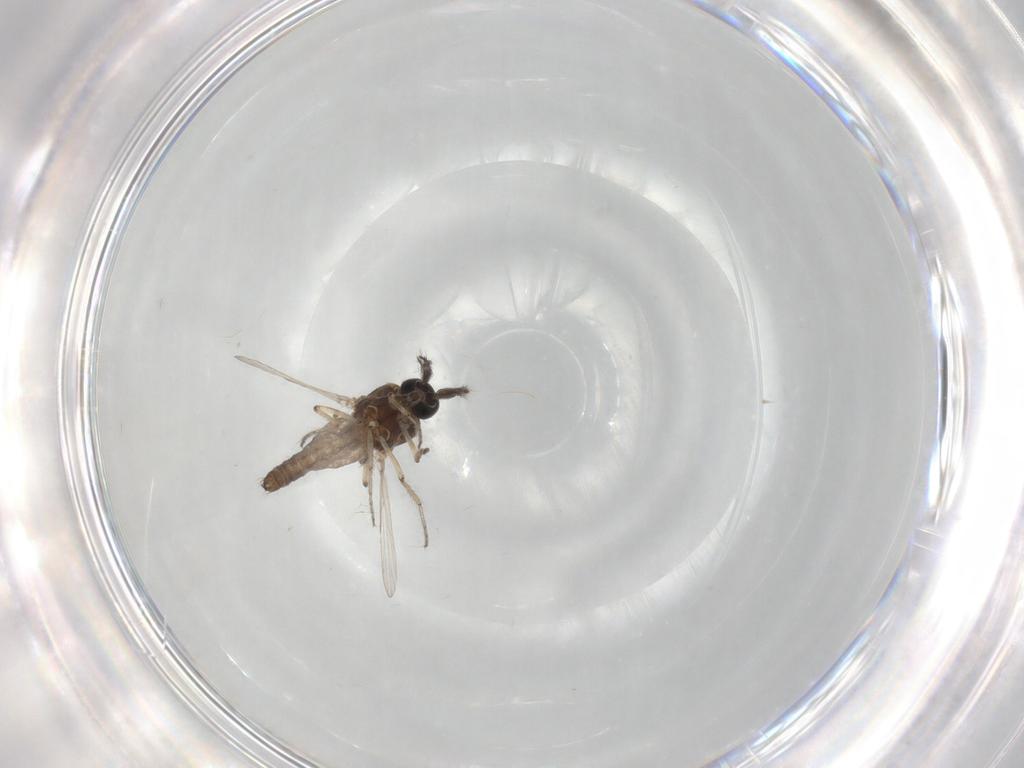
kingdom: Animalia
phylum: Arthropoda
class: Insecta
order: Diptera
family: Ceratopogonidae
